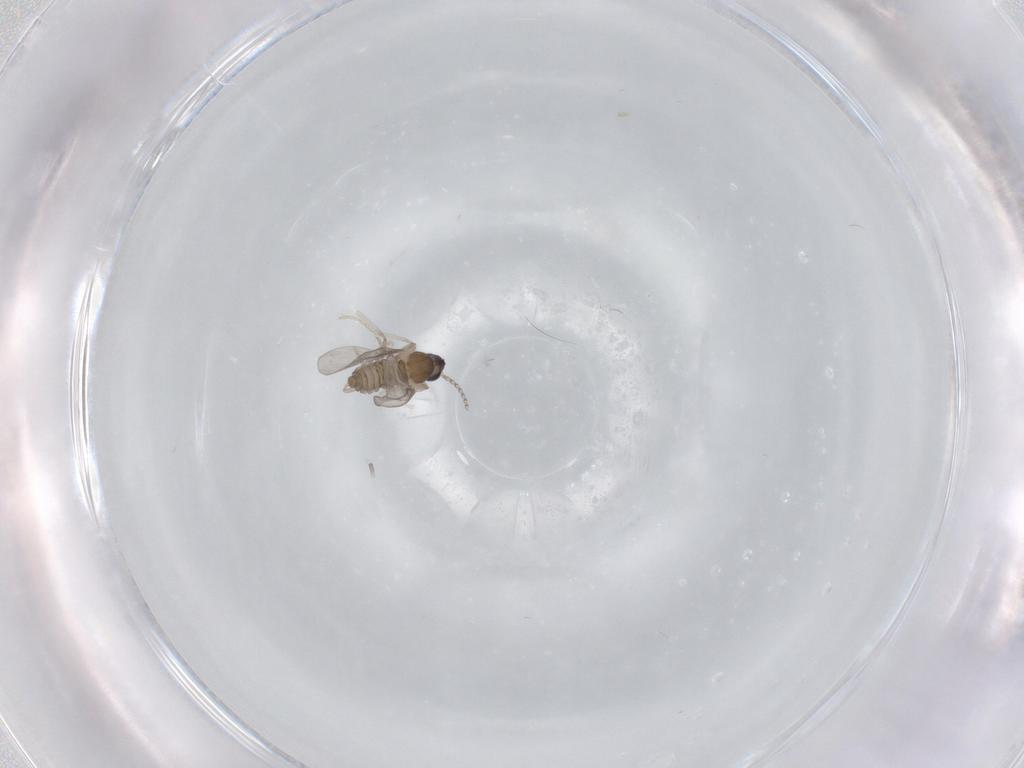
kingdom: Animalia
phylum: Arthropoda
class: Insecta
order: Diptera
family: Cecidomyiidae
